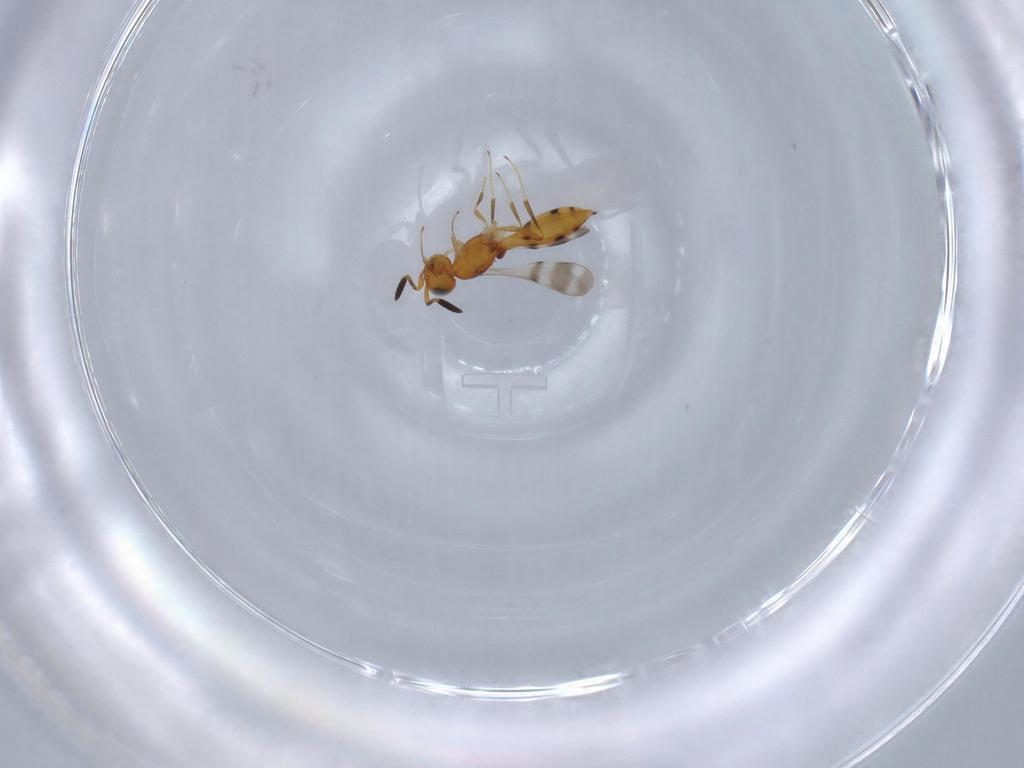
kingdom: Animalia
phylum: Arthropoda
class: Insecta
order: Hymenoptera
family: Scelionidae
